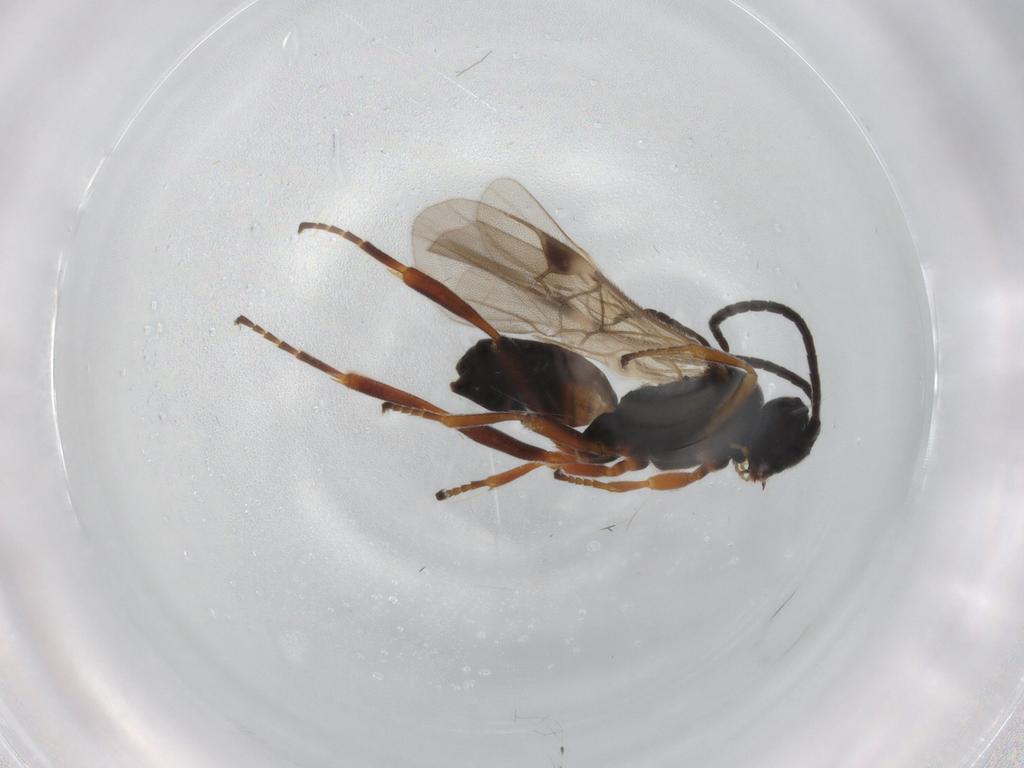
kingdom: Animalia
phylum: Arthropoda
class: Insecta
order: Hymenoptera
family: Braconidae
